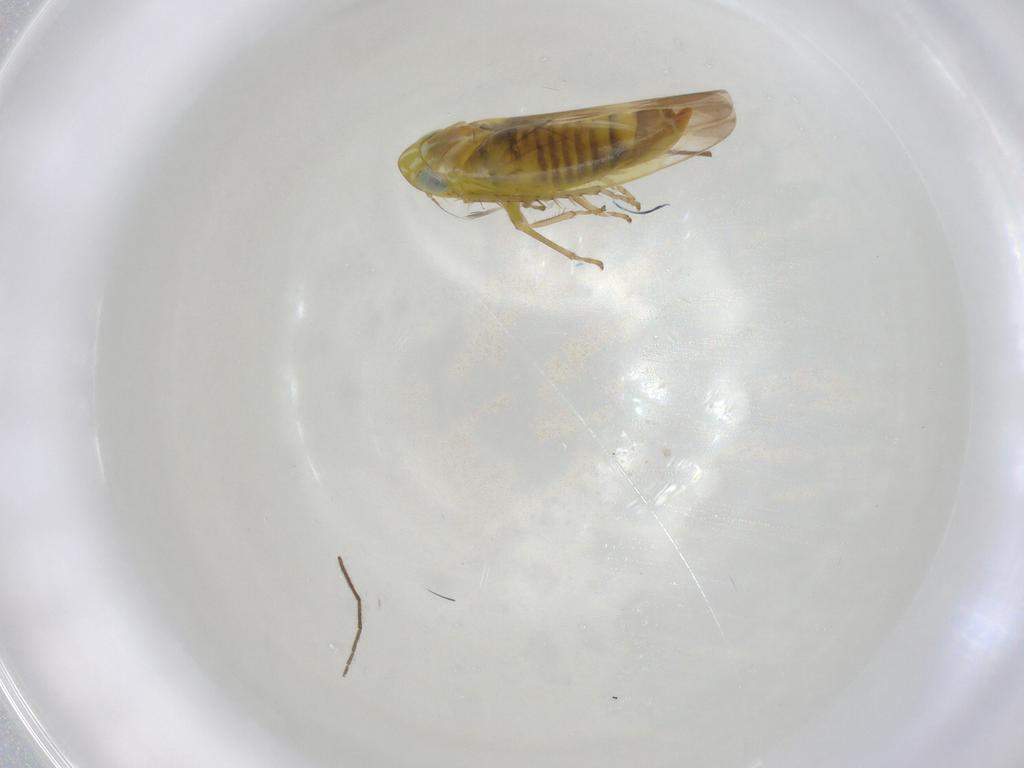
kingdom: Animalia
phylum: Arthropoda
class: Insecta
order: Hemiptera
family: Cicadellidae
